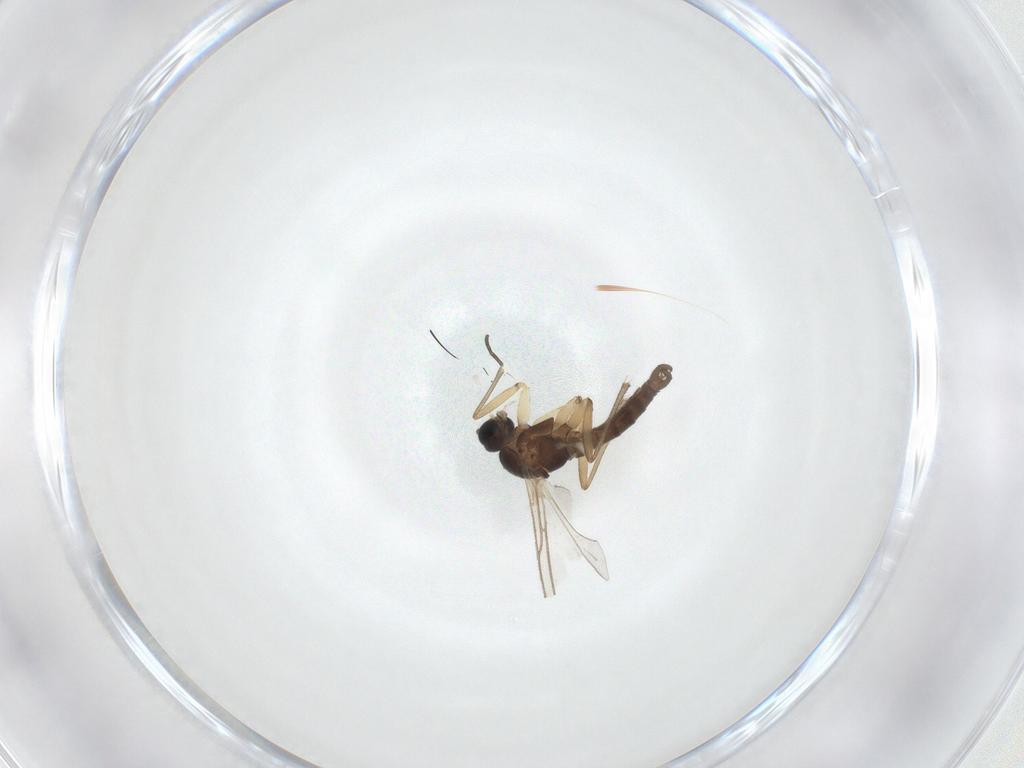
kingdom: Animalia
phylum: Arthropoda
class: Insecta
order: Diptera
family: Sciaridae
